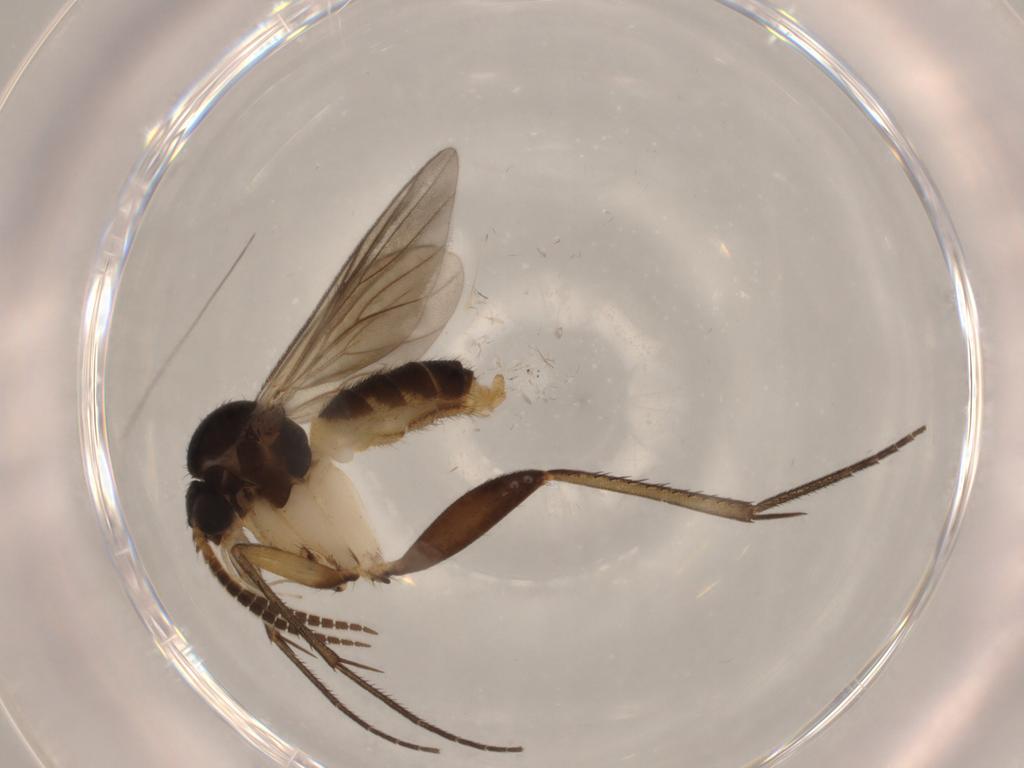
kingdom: Animalia
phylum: Arthropoda
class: Insecta
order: Diptera
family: Mycetophilidae
